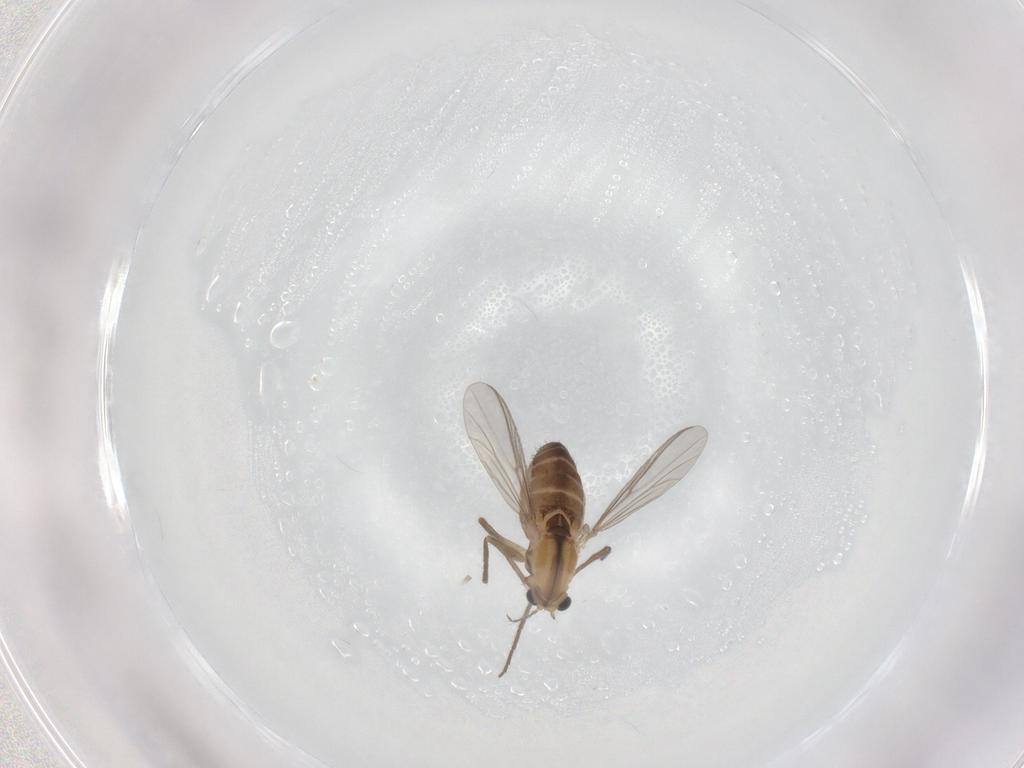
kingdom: Animalia
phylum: Arthropoda
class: Insecta
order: Diptera
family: Chironomidae
